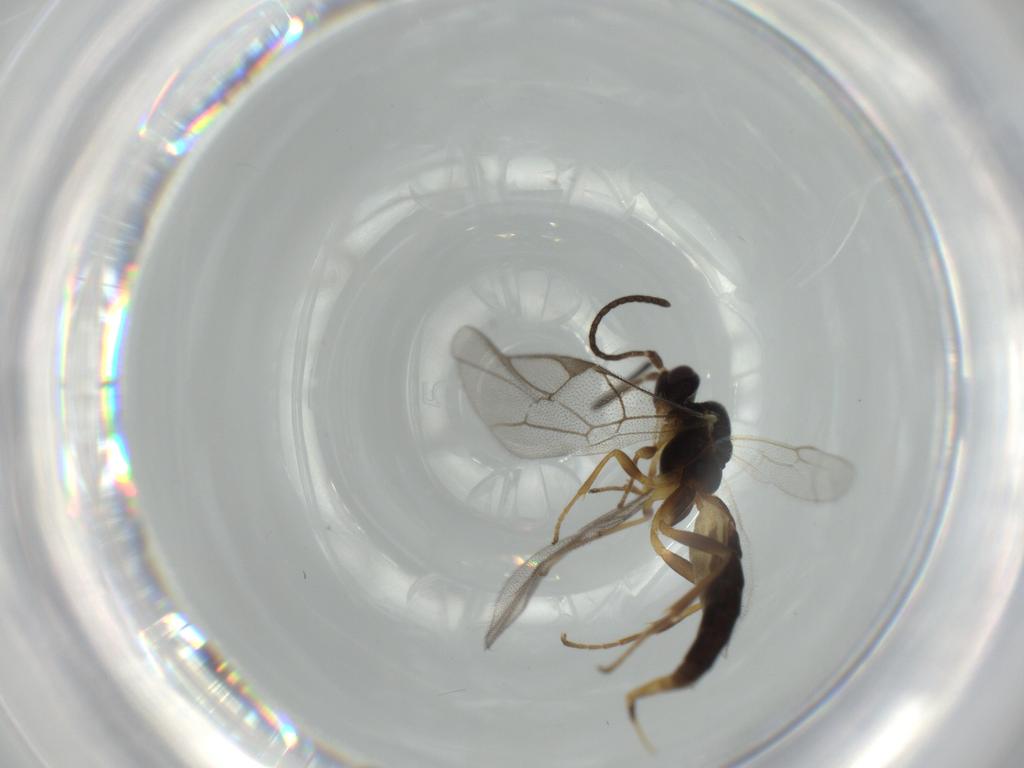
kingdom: Animalia
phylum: Arthropoda
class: Insecta
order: Hymenoptera
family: Ichneumonidae
